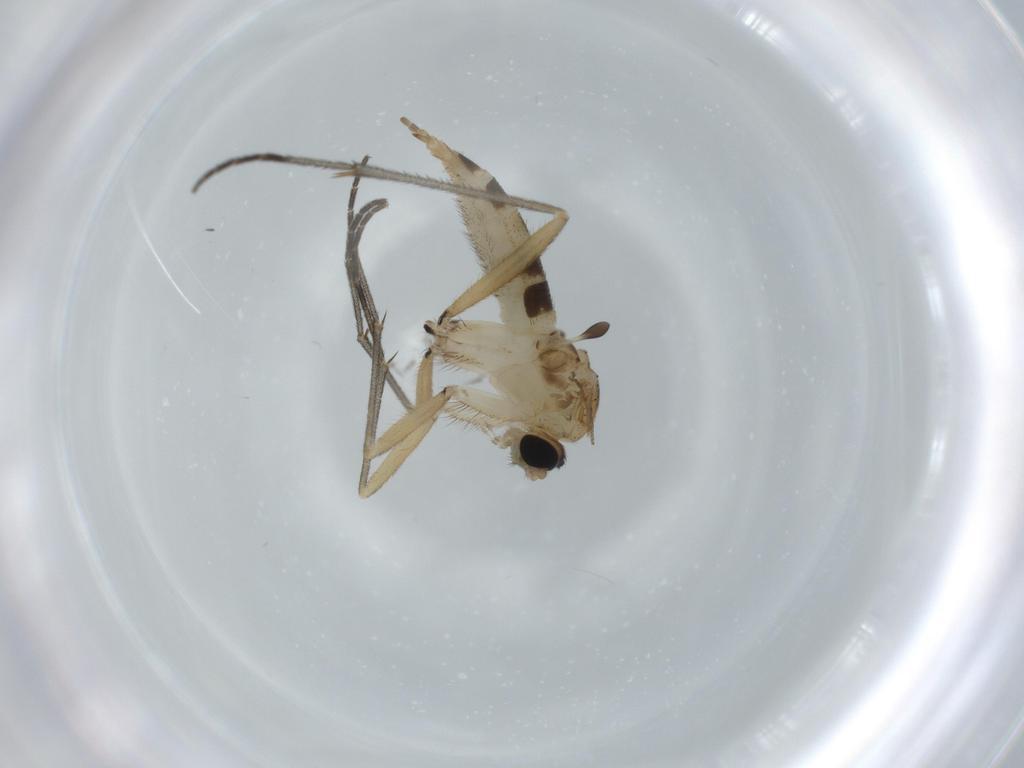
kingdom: Animalia
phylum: Arthropoda
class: Insecta
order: Diptera
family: Sciaridae
